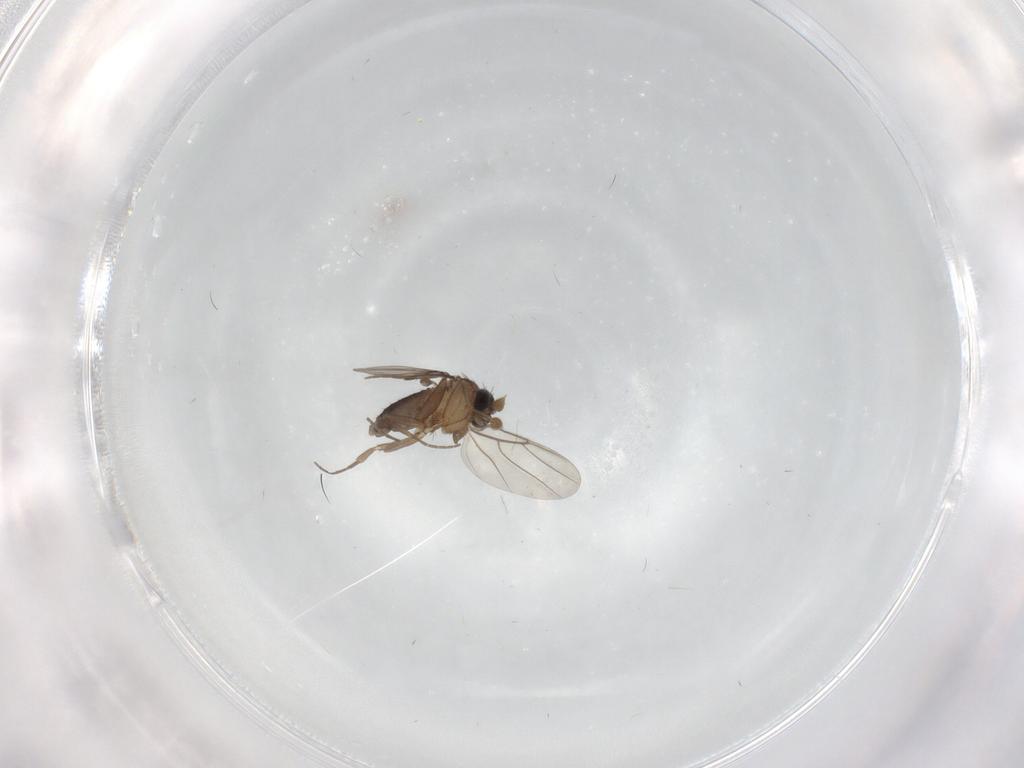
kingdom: Animalia
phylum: Arthropoda
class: Insecta
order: Diptera
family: Phoridae
